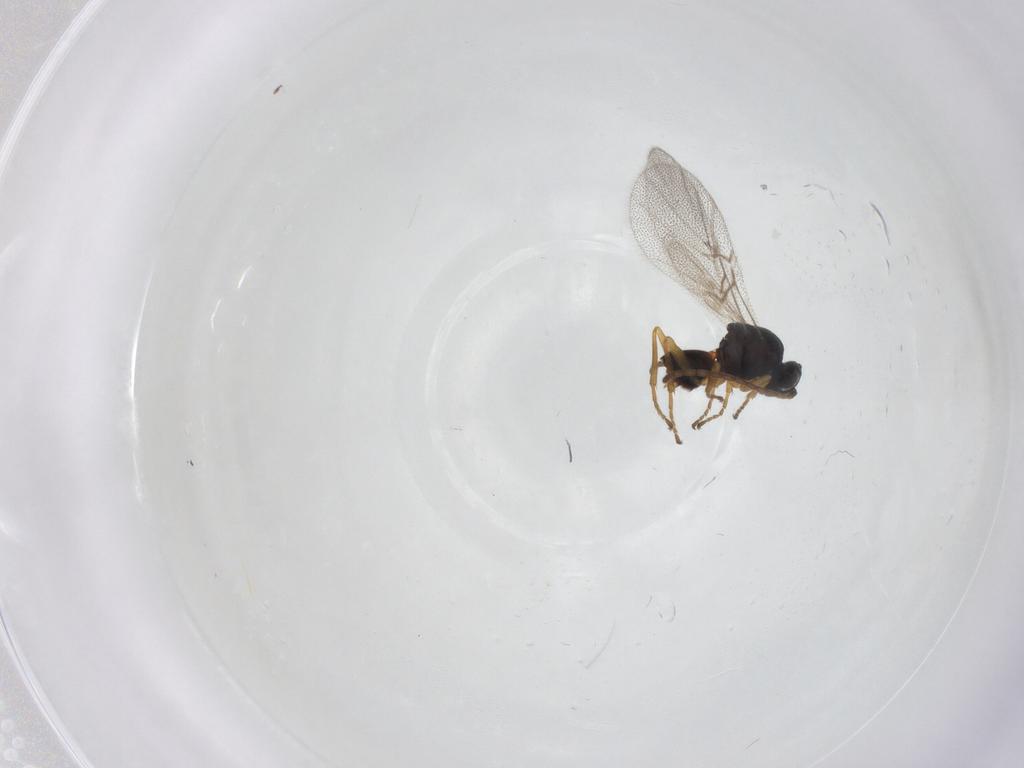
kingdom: Animalia
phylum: Arthropoda
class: Insecta
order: Hymenoptera
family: Cynipidae
